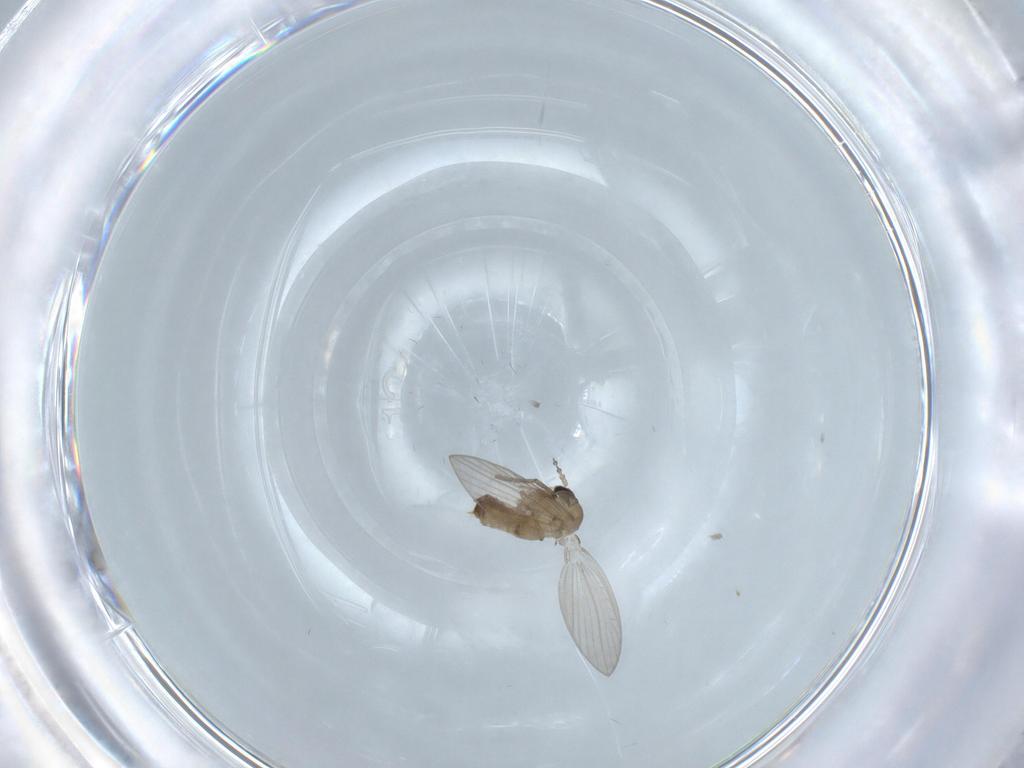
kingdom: Animalia
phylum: Arthropoda
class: Insecta
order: Diptera
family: Psychodidae
